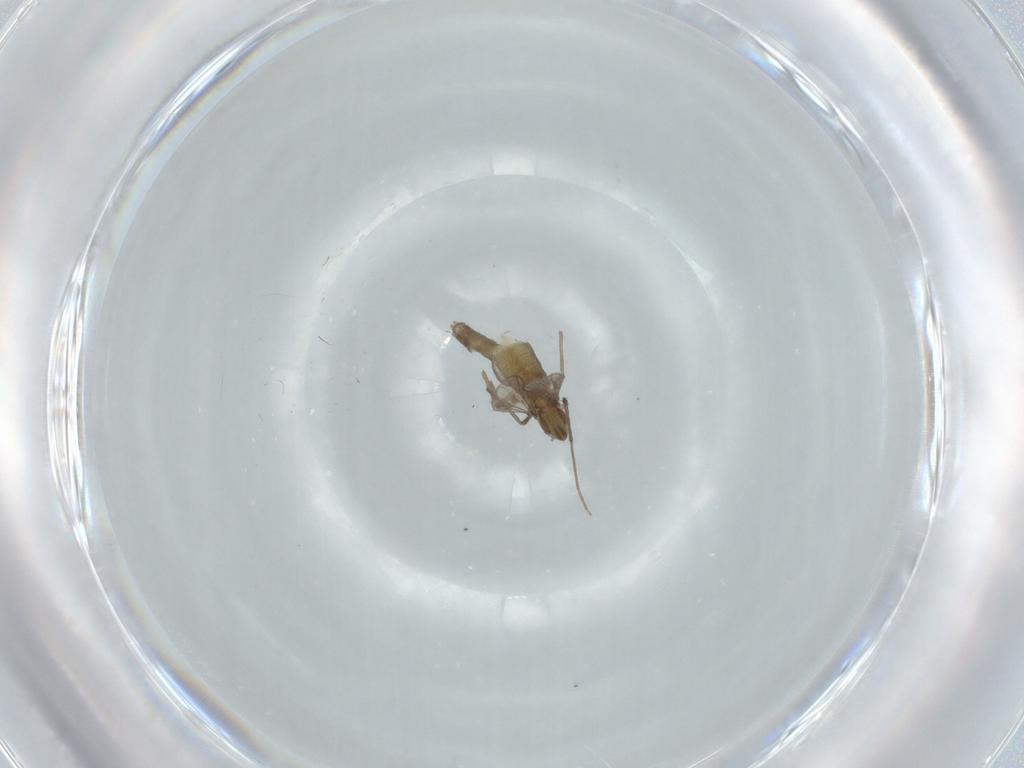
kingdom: Animalia
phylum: Arthropoda
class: Insecta
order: Diptera
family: Chironomidae
